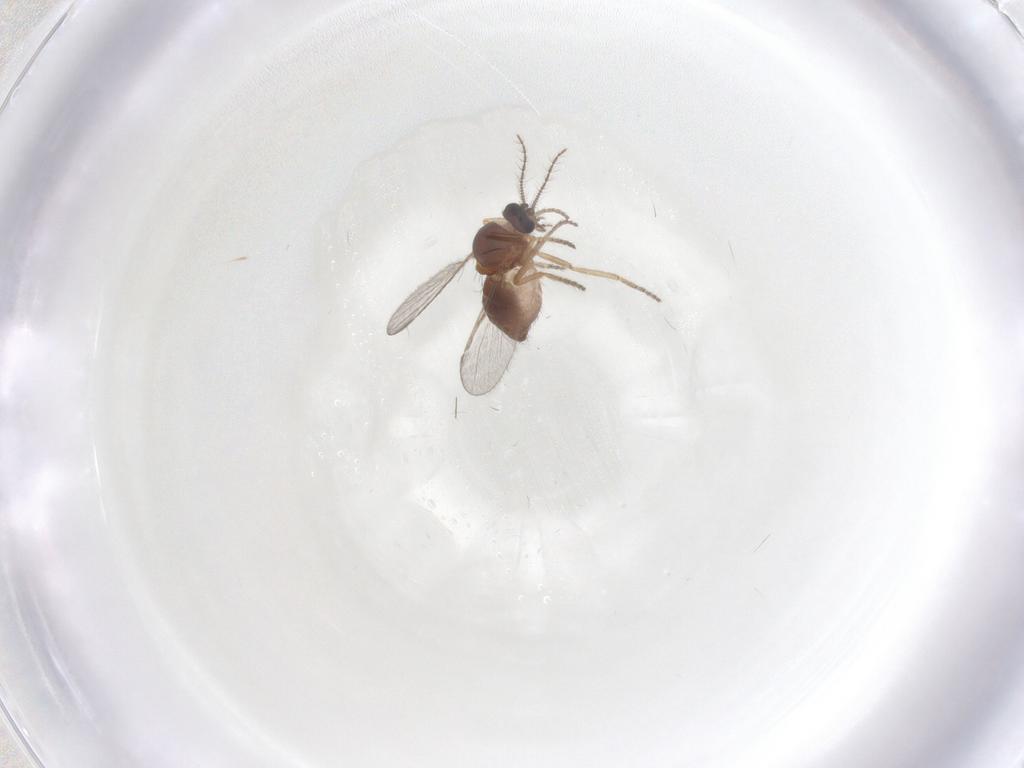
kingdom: Animalia
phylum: Arthropoda
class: Insecta
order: Diptera
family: Ceratopogonidae
